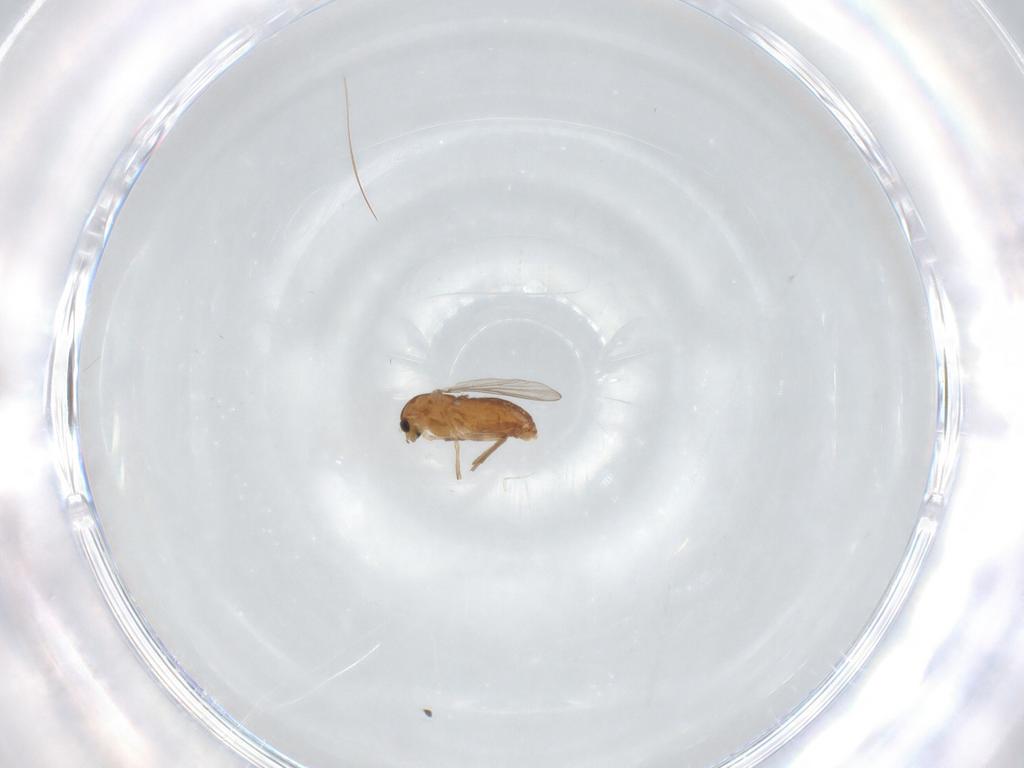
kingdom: Animalia
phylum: Arthropoda
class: Insecta
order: Diptera
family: Chironomidae
